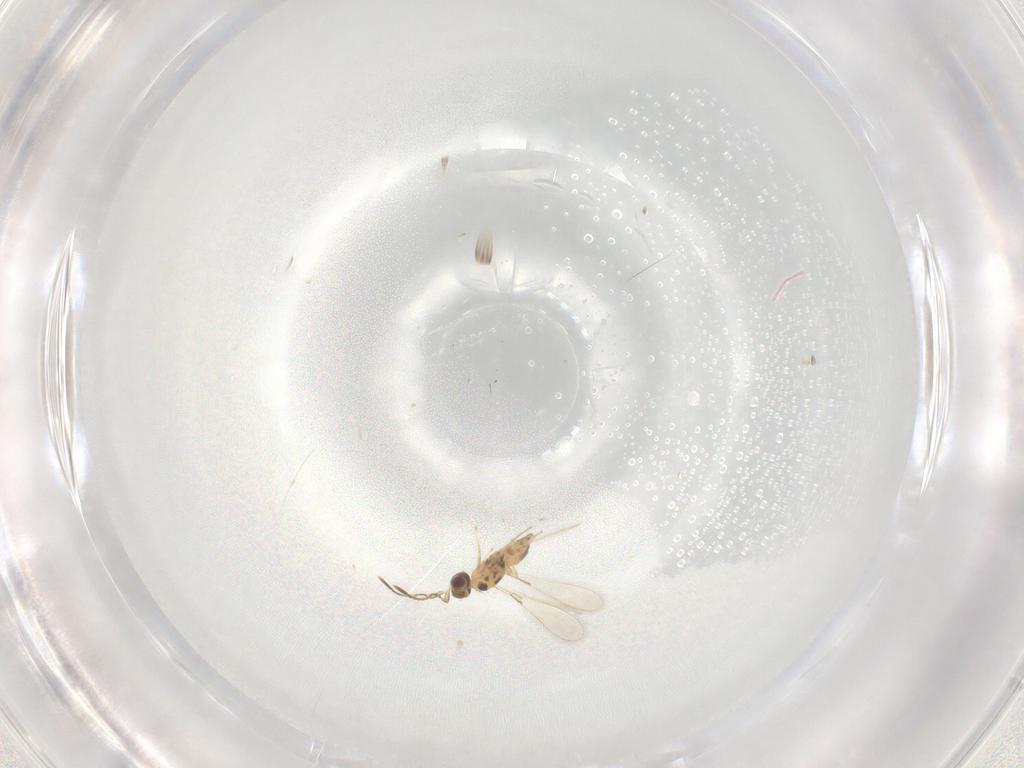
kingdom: Animalia
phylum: Arthropoda
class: Insecta
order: Hymenoptera
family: Mymaridae
